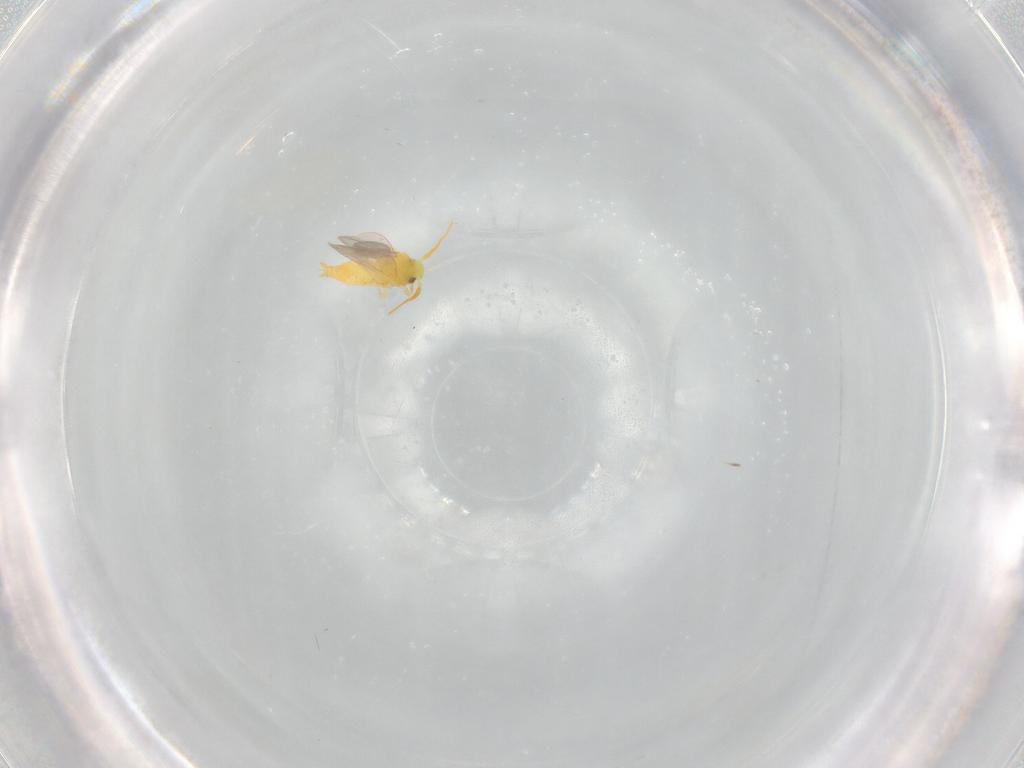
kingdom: Animalia
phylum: Arthropoda
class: Insecta
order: Hemiptera
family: Aleyrodidae
